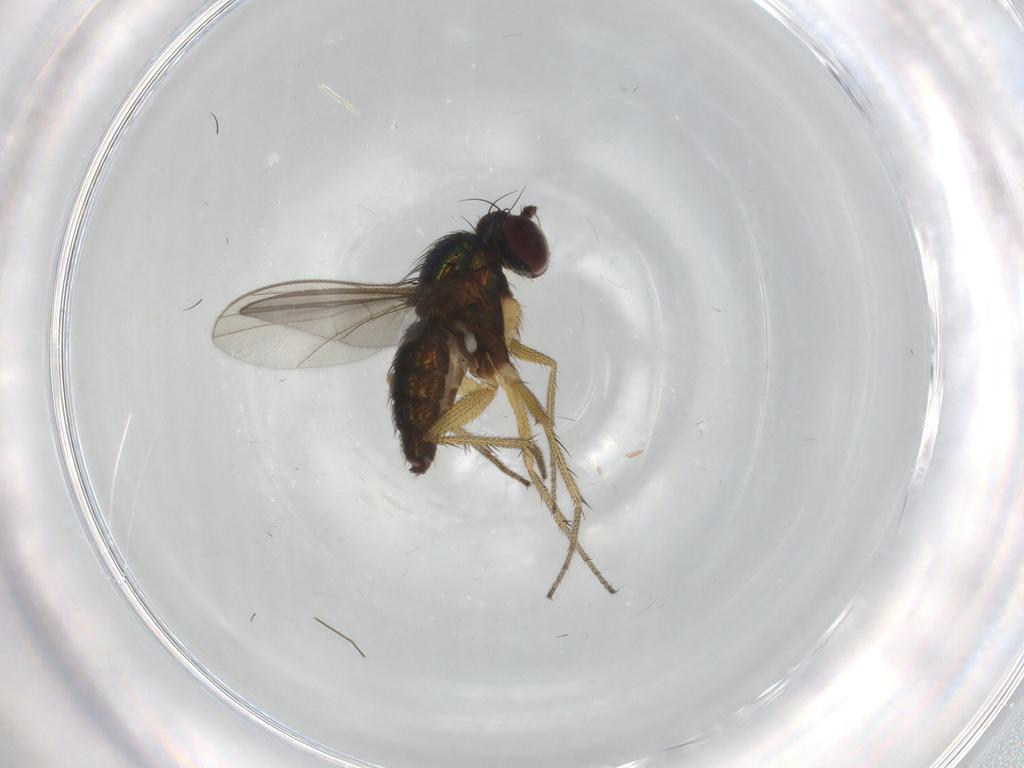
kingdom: Animalia
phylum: Arthropoda
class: Insecta
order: Diptera
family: Chironomidae
